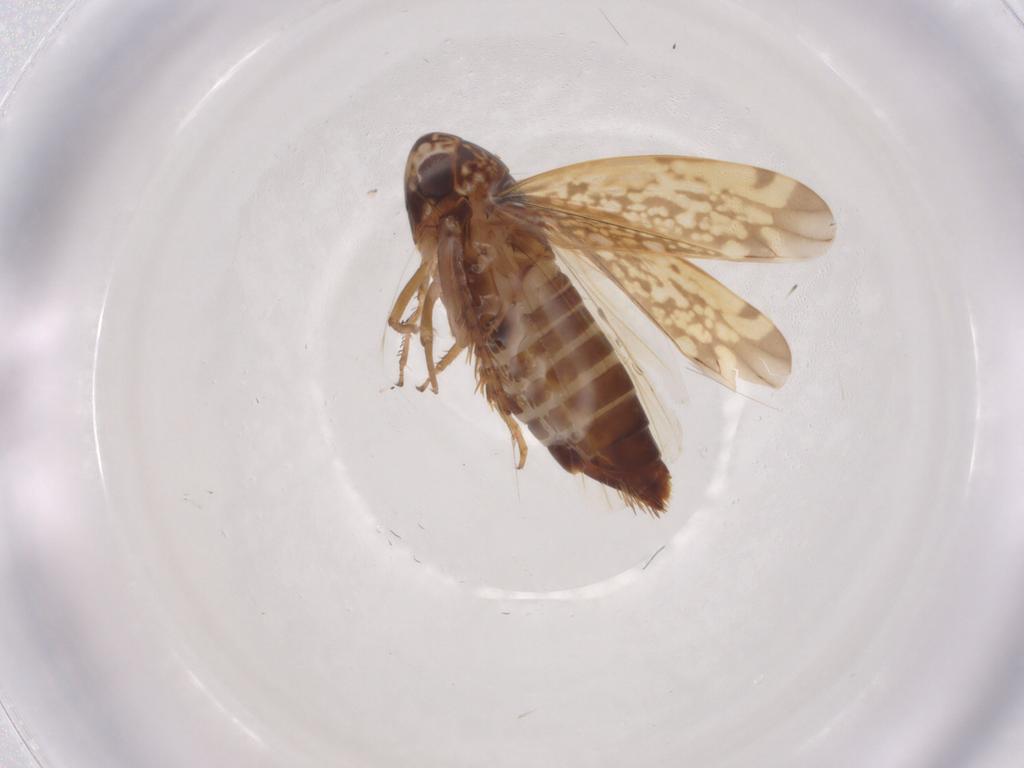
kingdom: Animalia
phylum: Arthropoda
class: Insecta
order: Hemiptera
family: Cicadellidae
